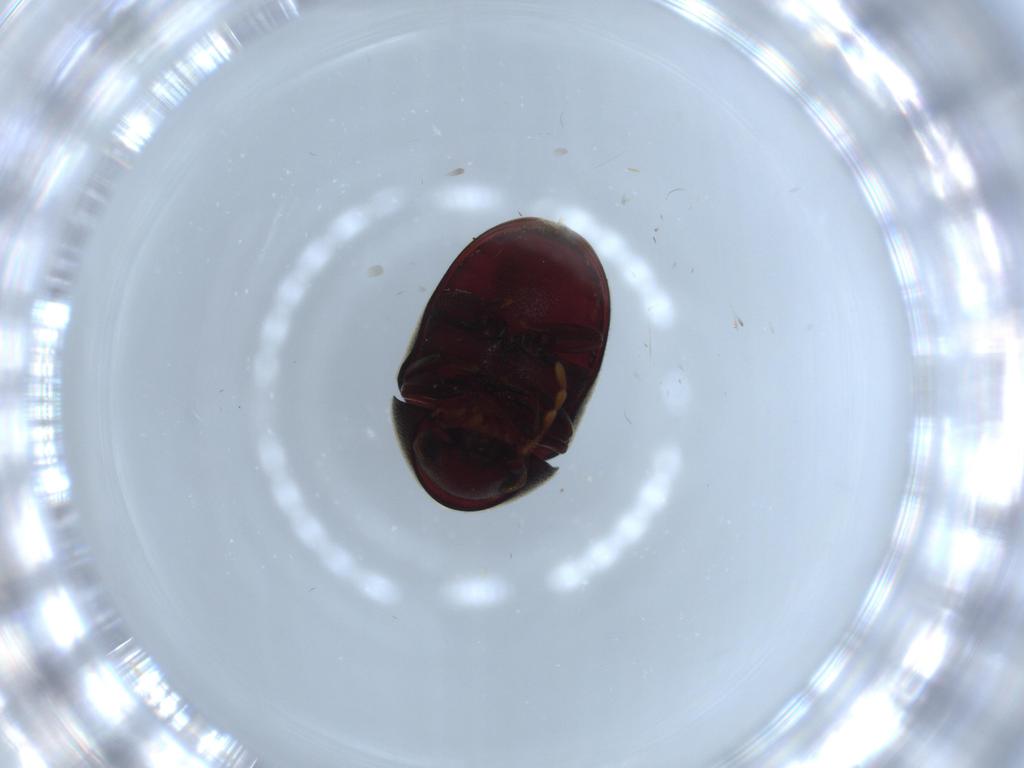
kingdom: Animalia
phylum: Arthropoda
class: Insecta
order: Coleoptera
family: Ptinidae
